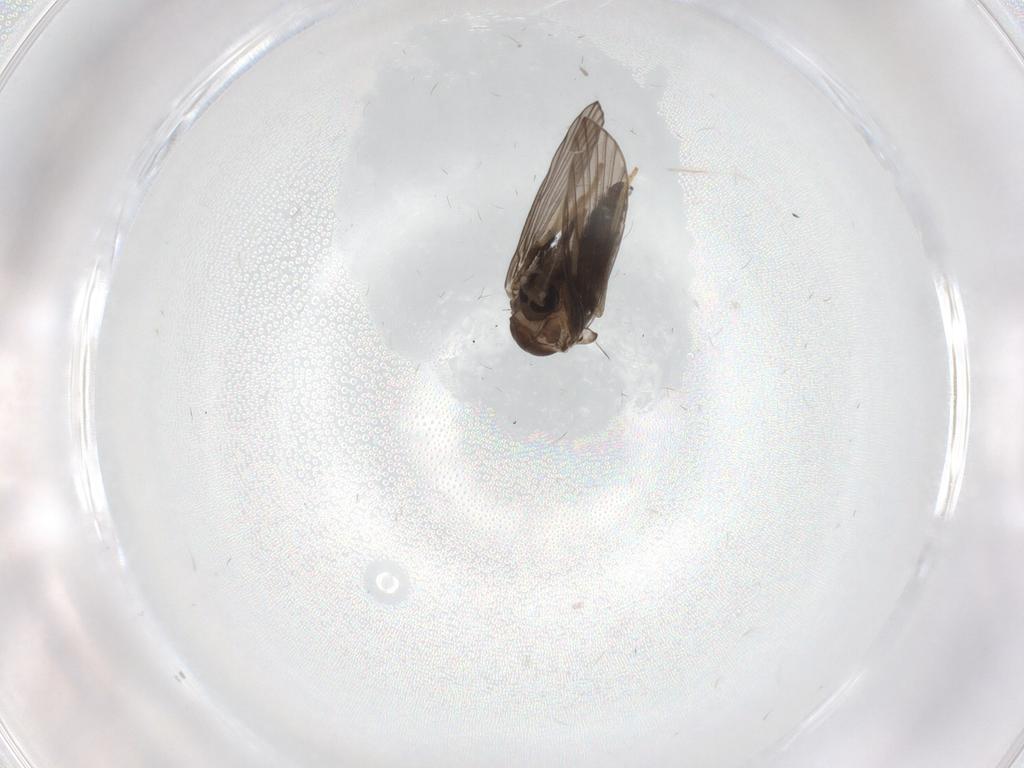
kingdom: Animalia
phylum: Arthropoda
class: Insecta
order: Diptera
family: Psychodidae
